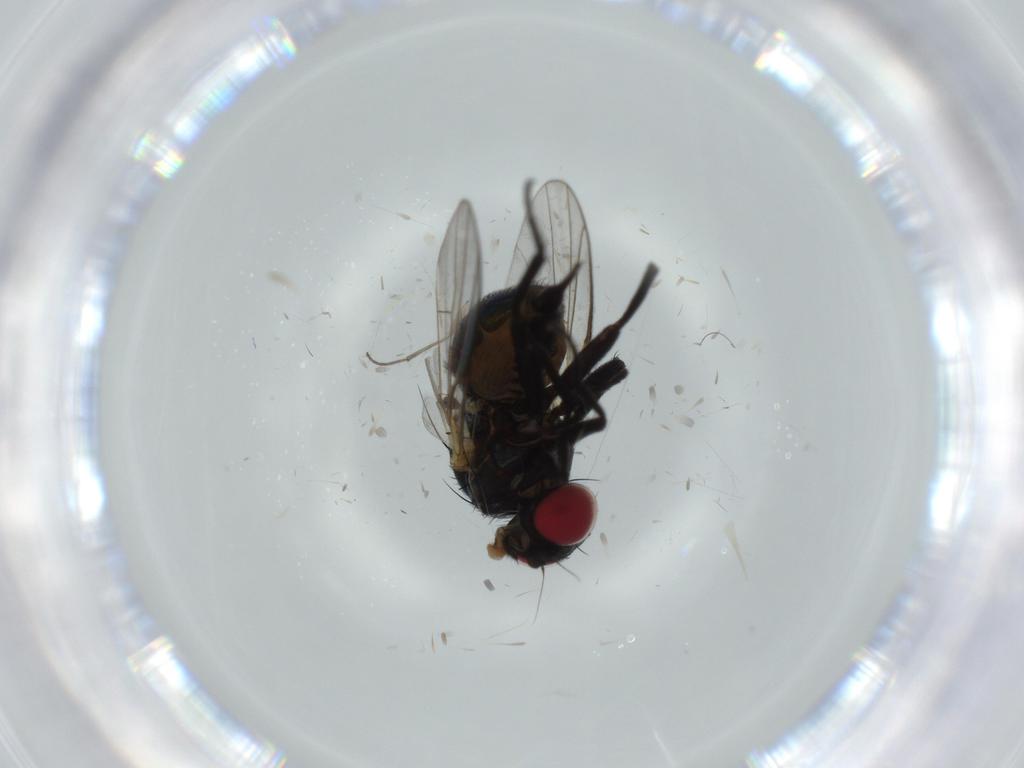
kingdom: Animalia
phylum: Arthropoda
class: Insecta
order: Diptera
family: Agromyzidae
